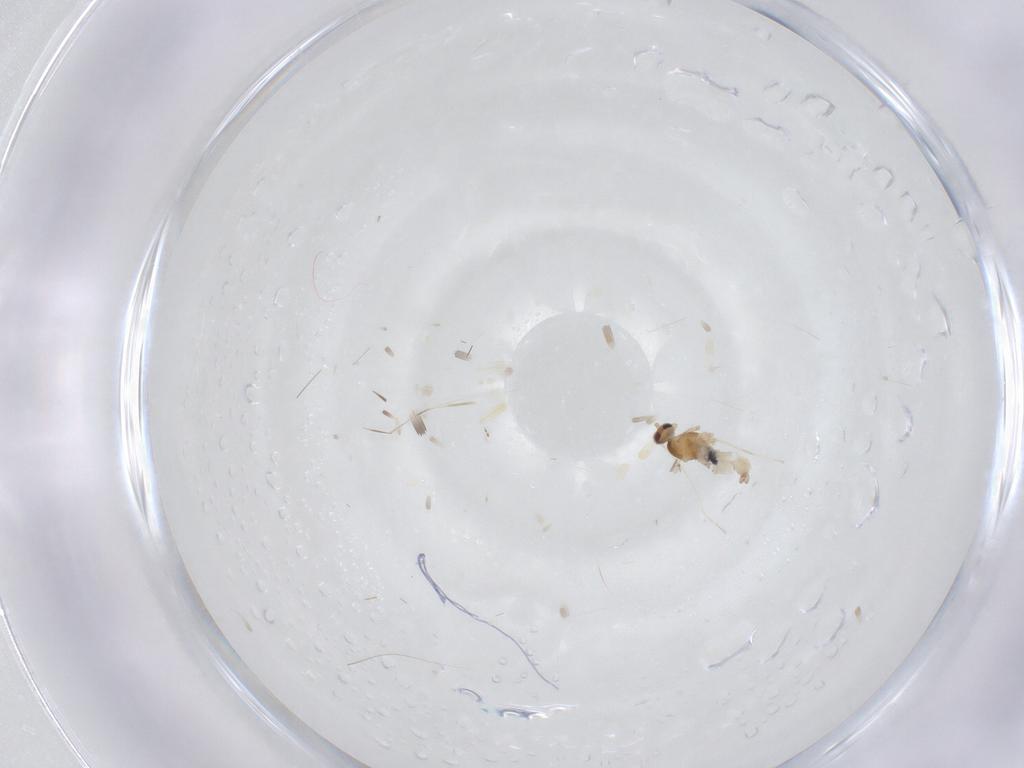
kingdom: Animalia
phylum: Arthropoda
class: Insecta
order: Diptera
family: Cecidomyiidae
